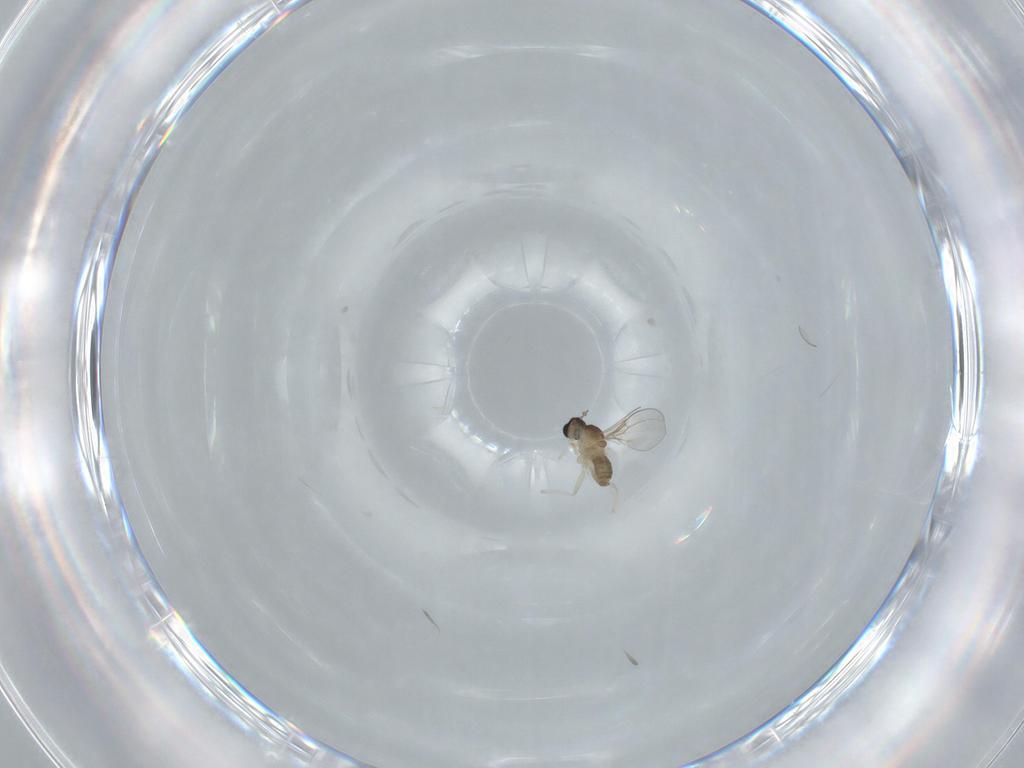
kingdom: Animalia
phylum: Arthropoda
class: Insecta
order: Diptera
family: Cecidomyiidae
